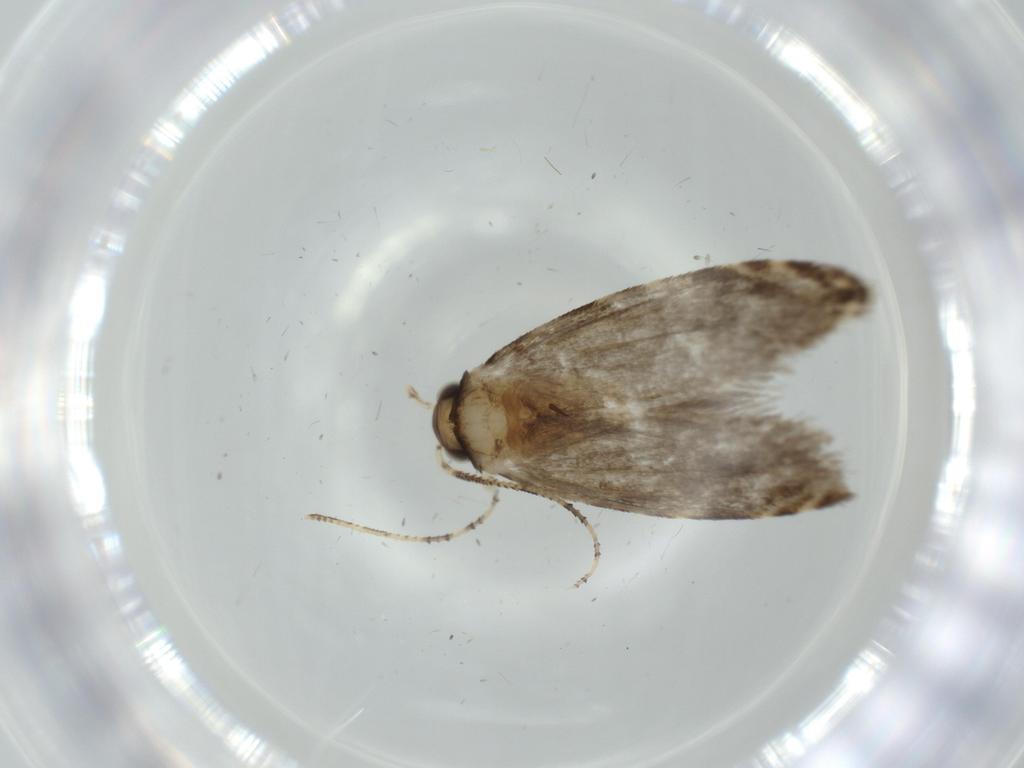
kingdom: Animalia
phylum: Arthropoda
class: Insecta
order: Lepidoptera
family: Tineidae
